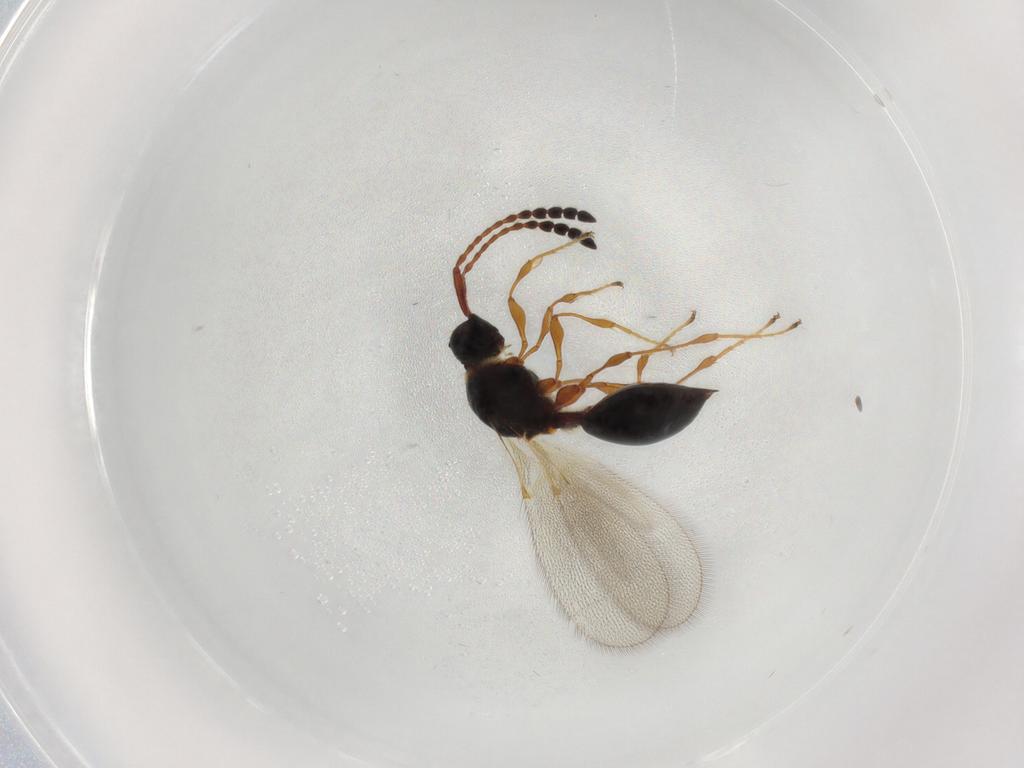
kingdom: Animalia
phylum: Arthropoda
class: Insecta
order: Hymenoptera
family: Diapriidae
